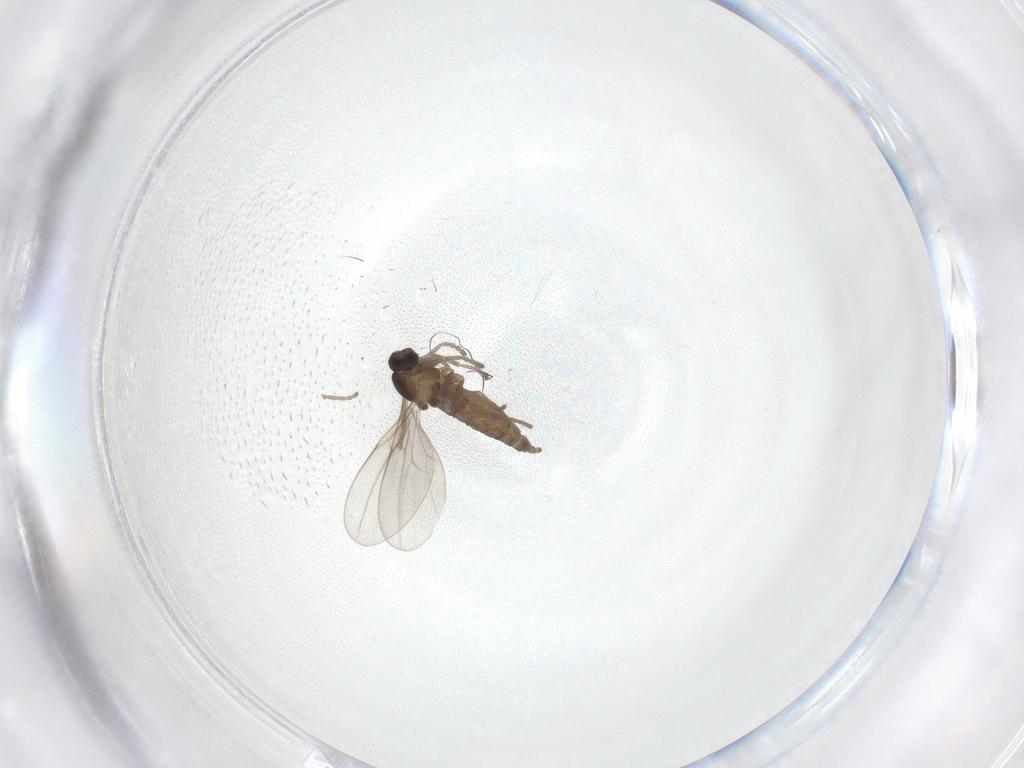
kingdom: Animalia
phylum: Arthropoda
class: Insecta
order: Diptera
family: Cecidomyiidae
